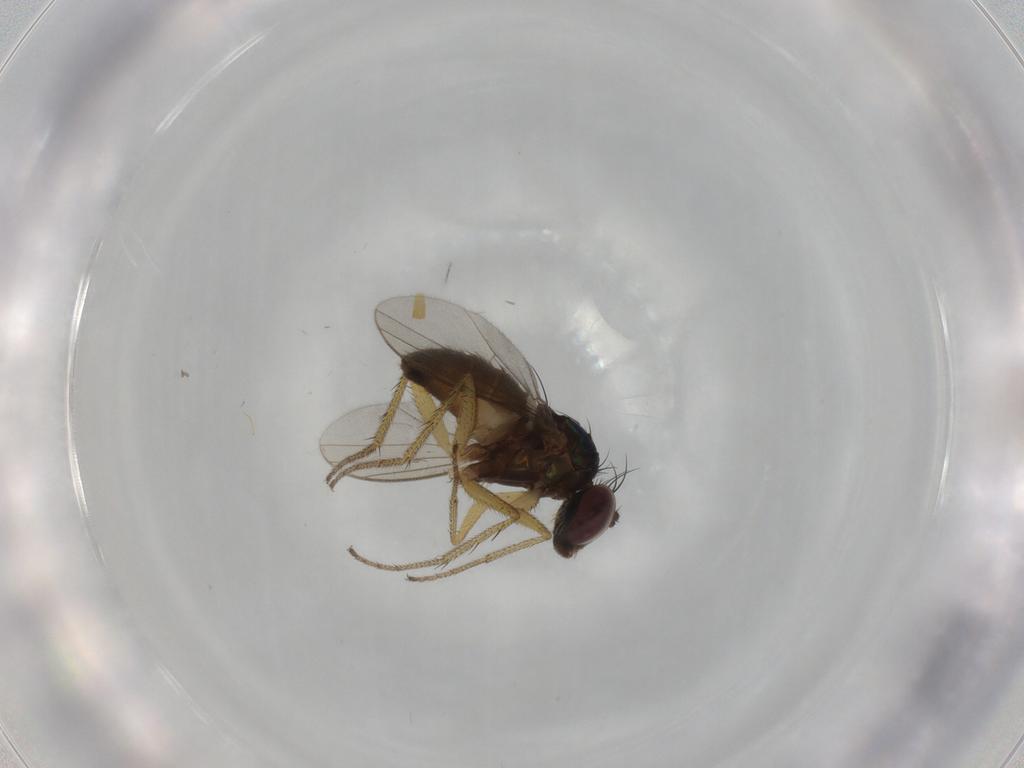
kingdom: Animalia
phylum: Arthropoda
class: Insecta
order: Diptera
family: Dolichopodidae
